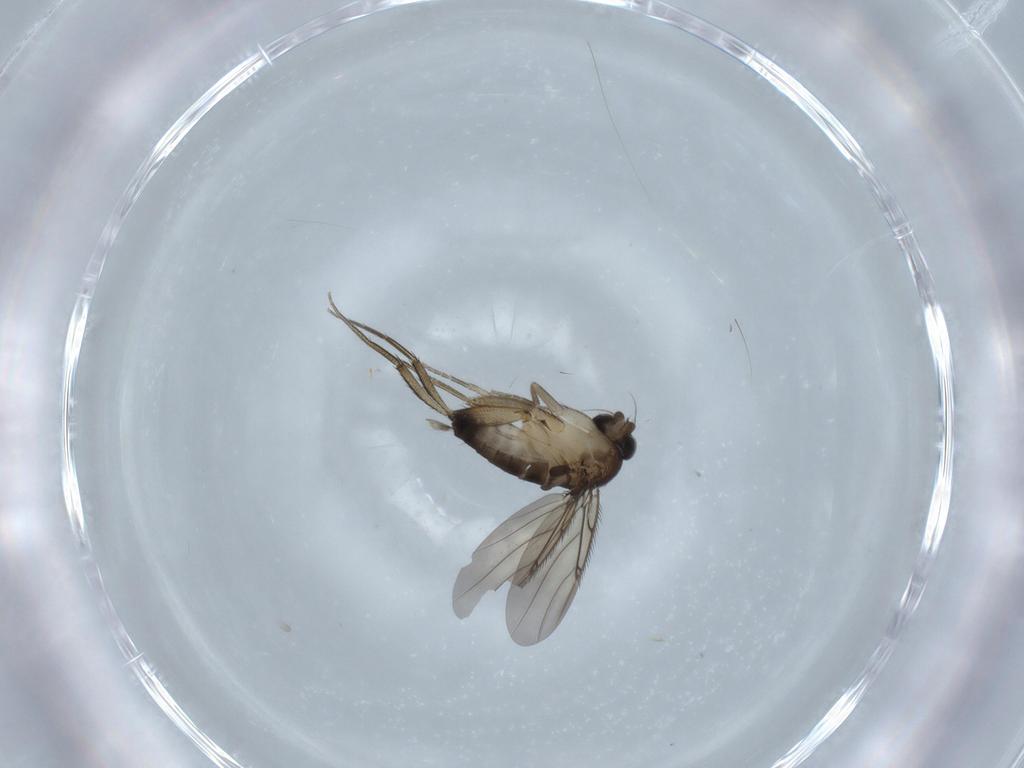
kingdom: Animalia
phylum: Arthropoda
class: Insecta
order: Diptera
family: Phoridae
